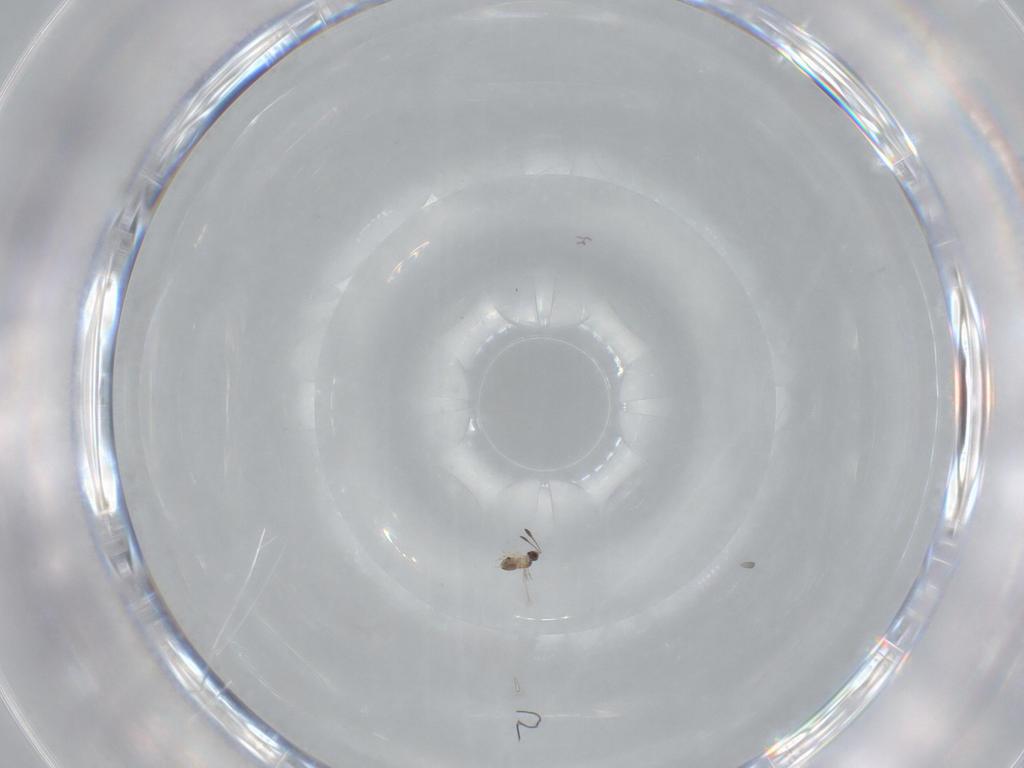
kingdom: Animalia
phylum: Arthropoda
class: Insecta
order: Hymenoptera
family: Mymaridae
